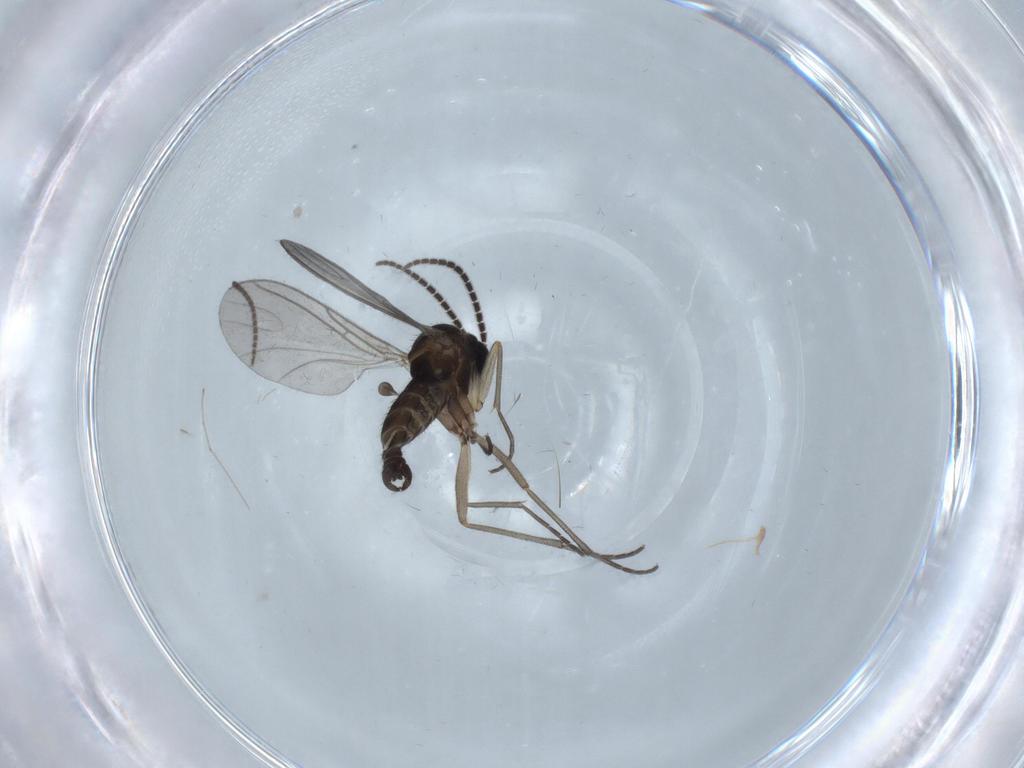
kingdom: Animalia
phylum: Arthropoda
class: Insecta
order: Diptera
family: Sciaridae
